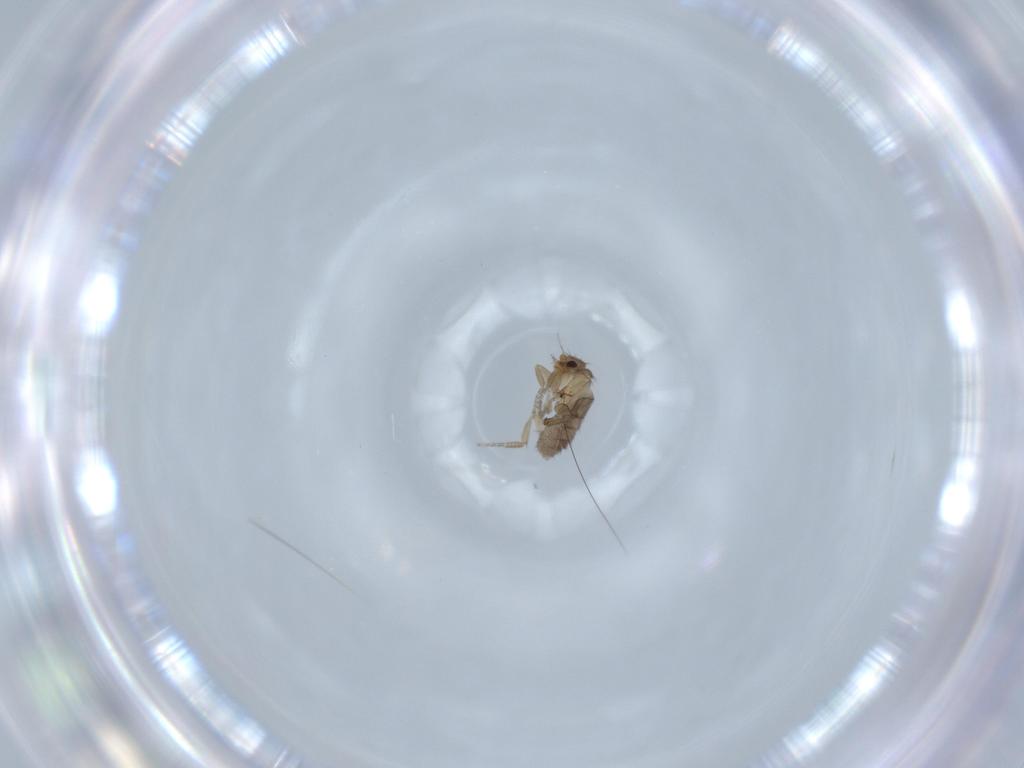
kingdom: Animalia
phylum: Arthropoda
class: Insecta
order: Diptera
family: Phoridae
